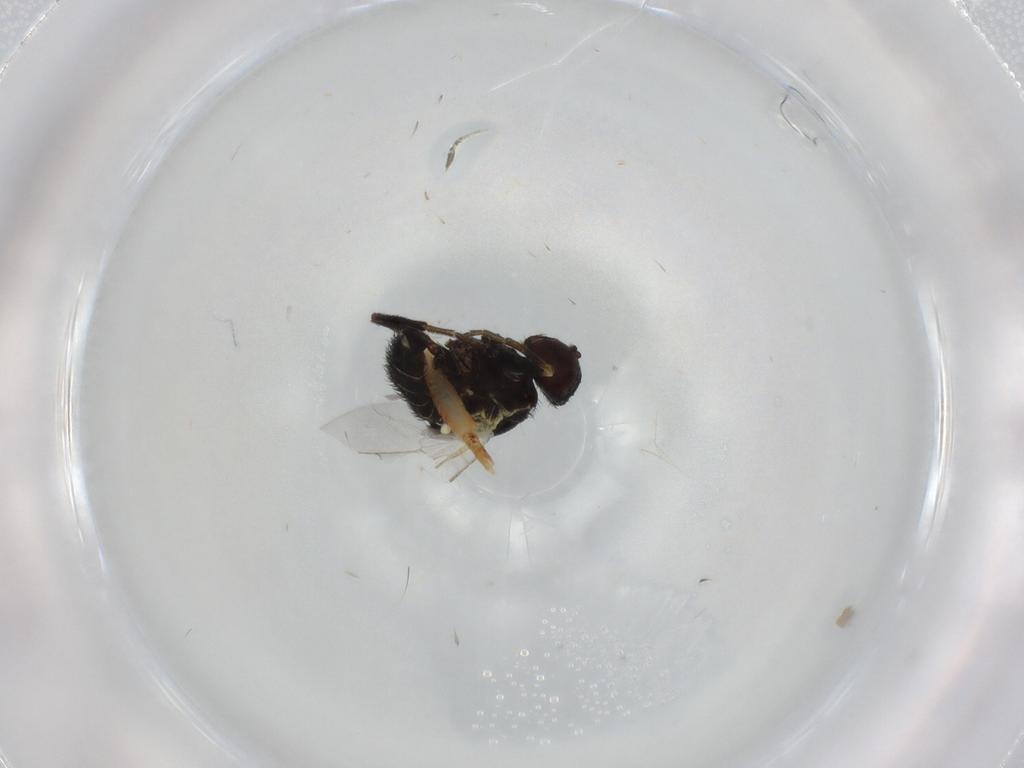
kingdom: Animalia
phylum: Arthropoda
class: Insecta
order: Diptera
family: Agromyzidae
